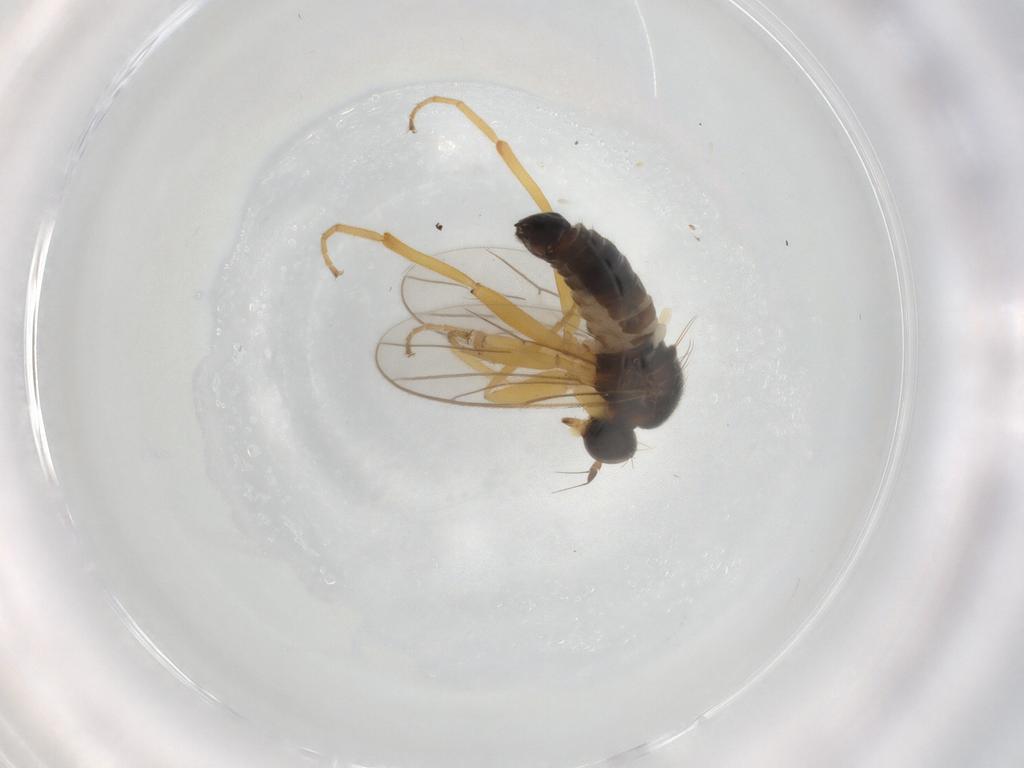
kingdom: Animalia
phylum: Arthropoda
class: Insecta
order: Diptera
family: Hybotidae
